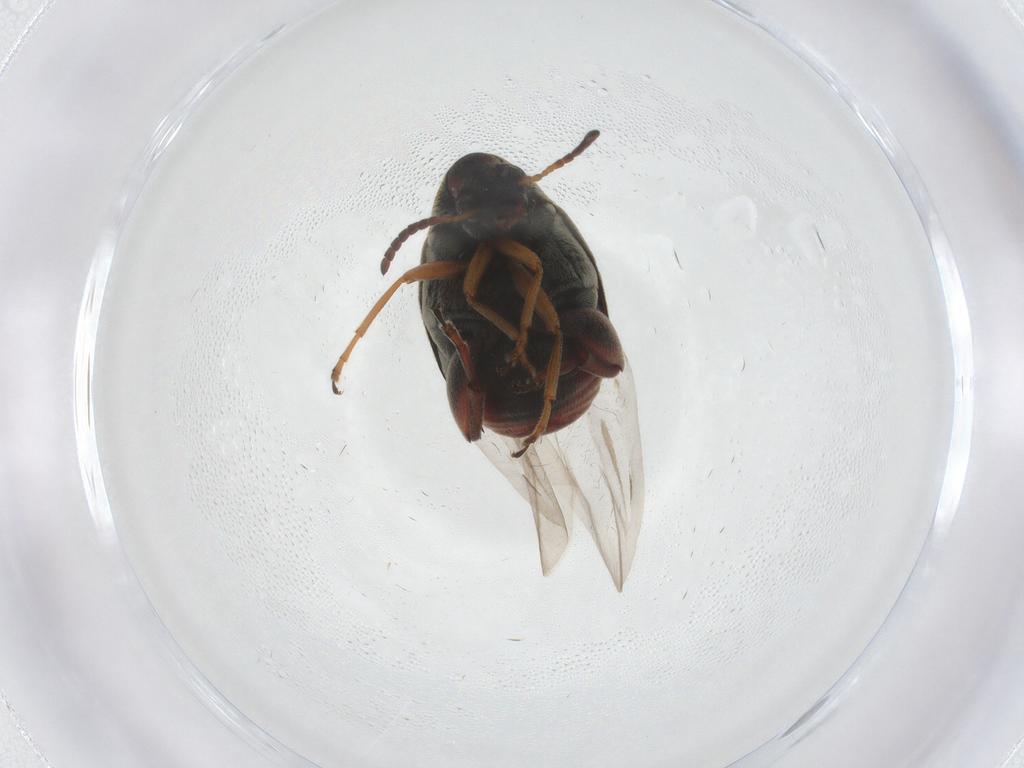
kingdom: Animalia
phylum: Arthropoda
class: Insecta
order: Coleoptera
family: Chrysomelidae
